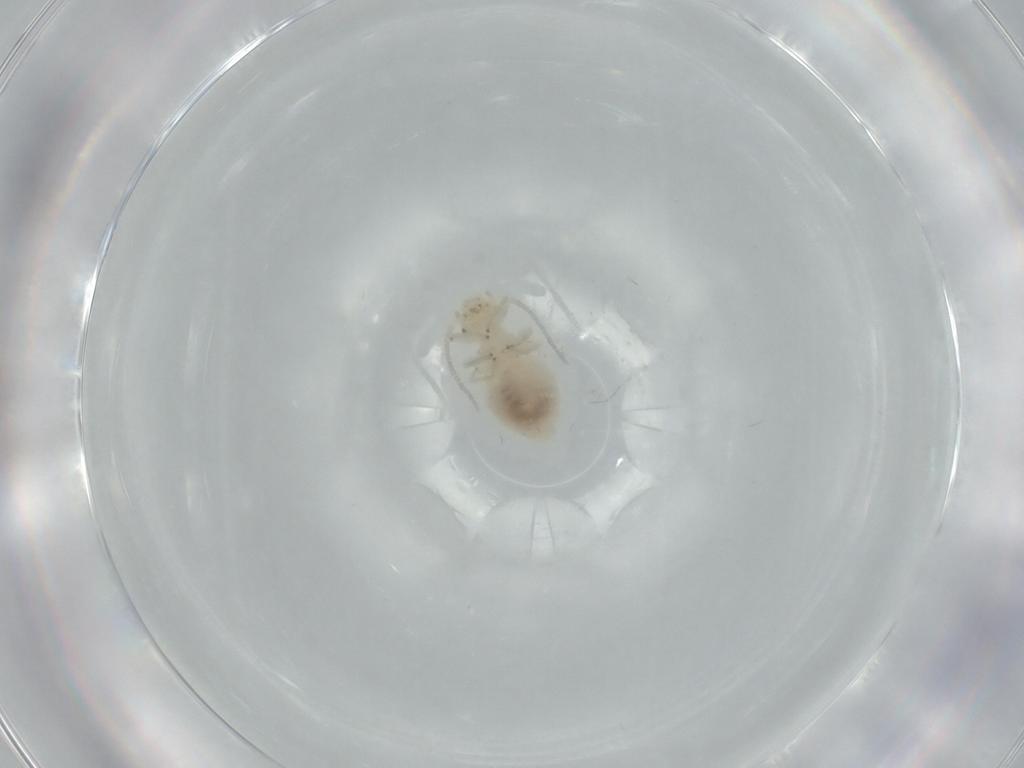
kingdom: Animalia
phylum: Arthropoda
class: Insecta
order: Psocodea
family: Caeciliusidae
